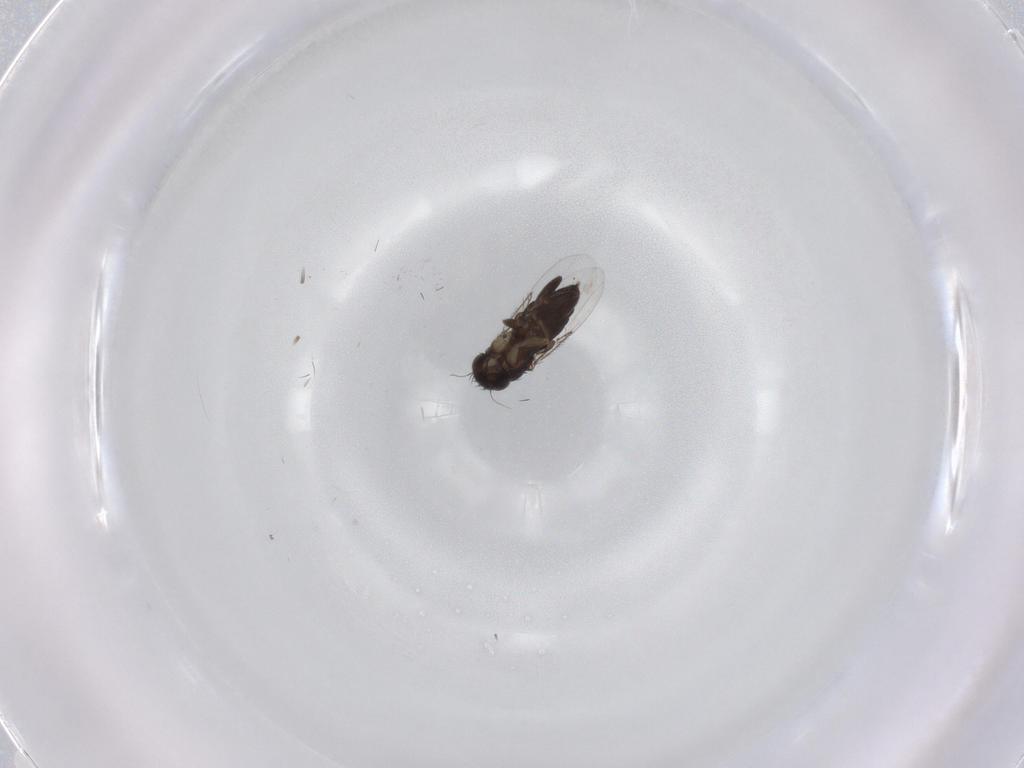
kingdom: Animalia
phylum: Arthropoda
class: Insecta
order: Diptera
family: Phoridae
